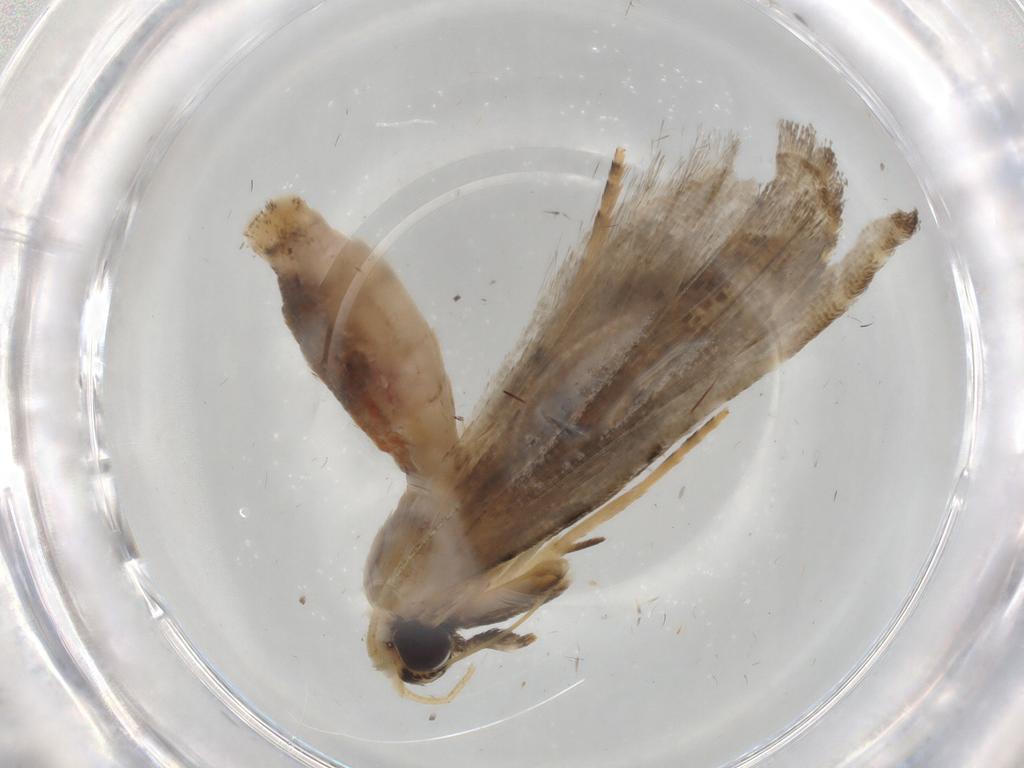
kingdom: Animalia
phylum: Arthropoda
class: Insecta
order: Lepidoptera
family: Noctuidae
